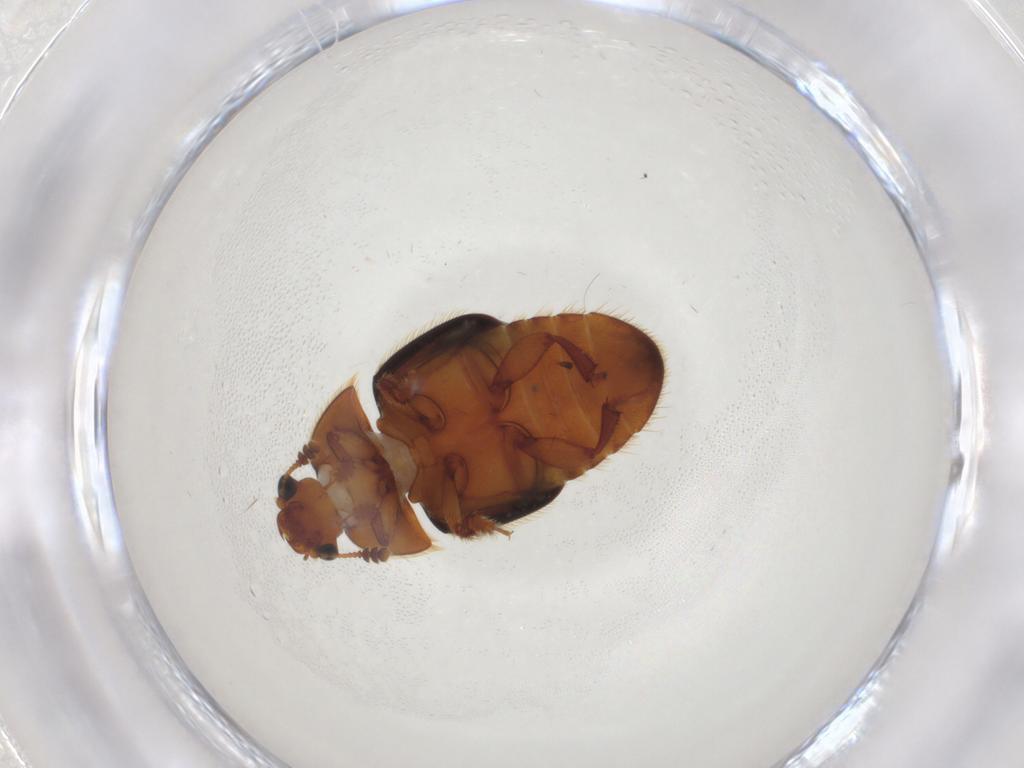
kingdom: Animalia
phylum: Arthropoda
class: Insecta
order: Coleoptera
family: Nitidulidae
